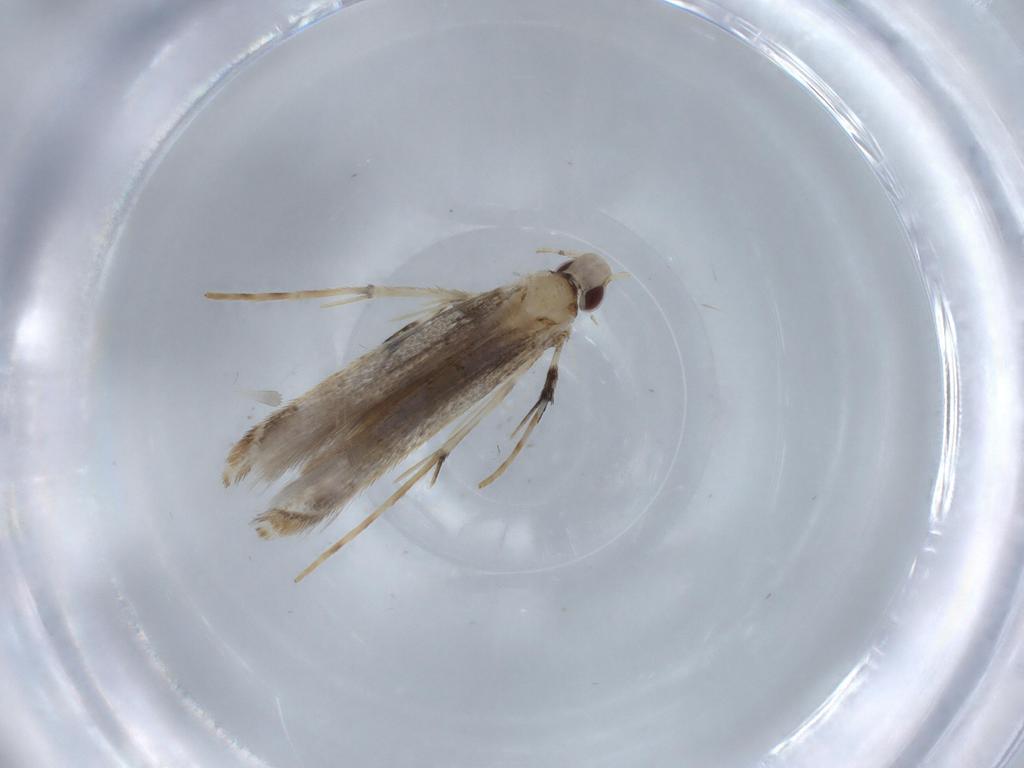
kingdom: Animalia
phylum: Arthropoda
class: Insecta
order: Lepidoptera
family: Gracillariidae
